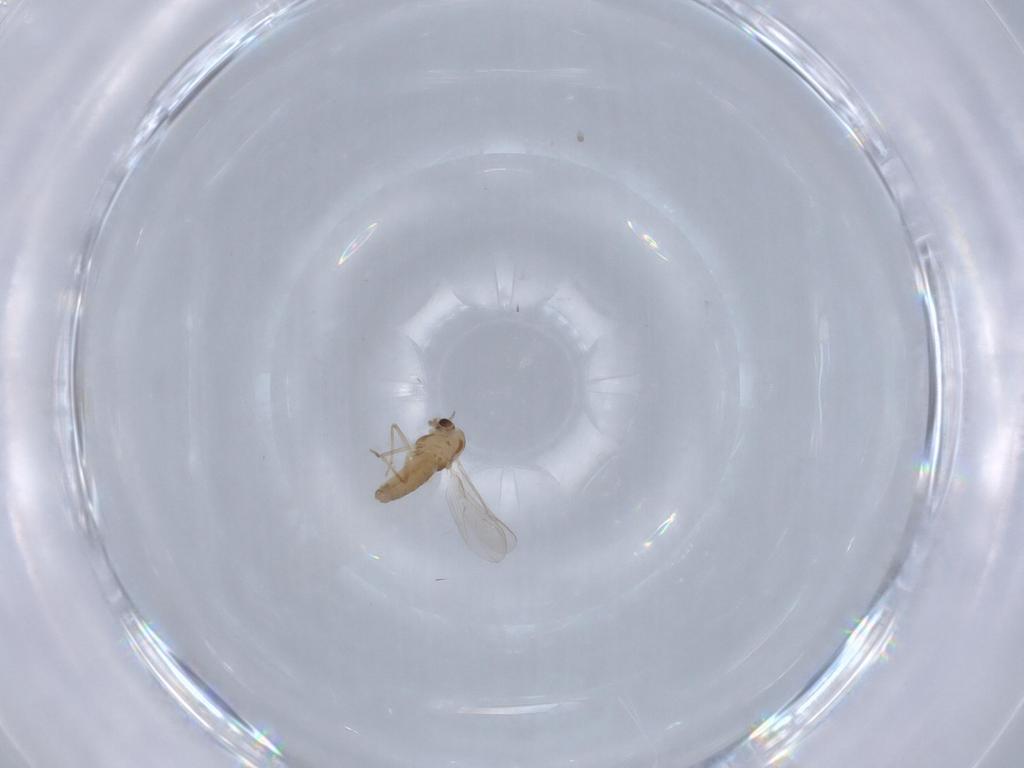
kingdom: Animalia
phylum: Arthropoda
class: Insecta
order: Diptera
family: Chironomidae
